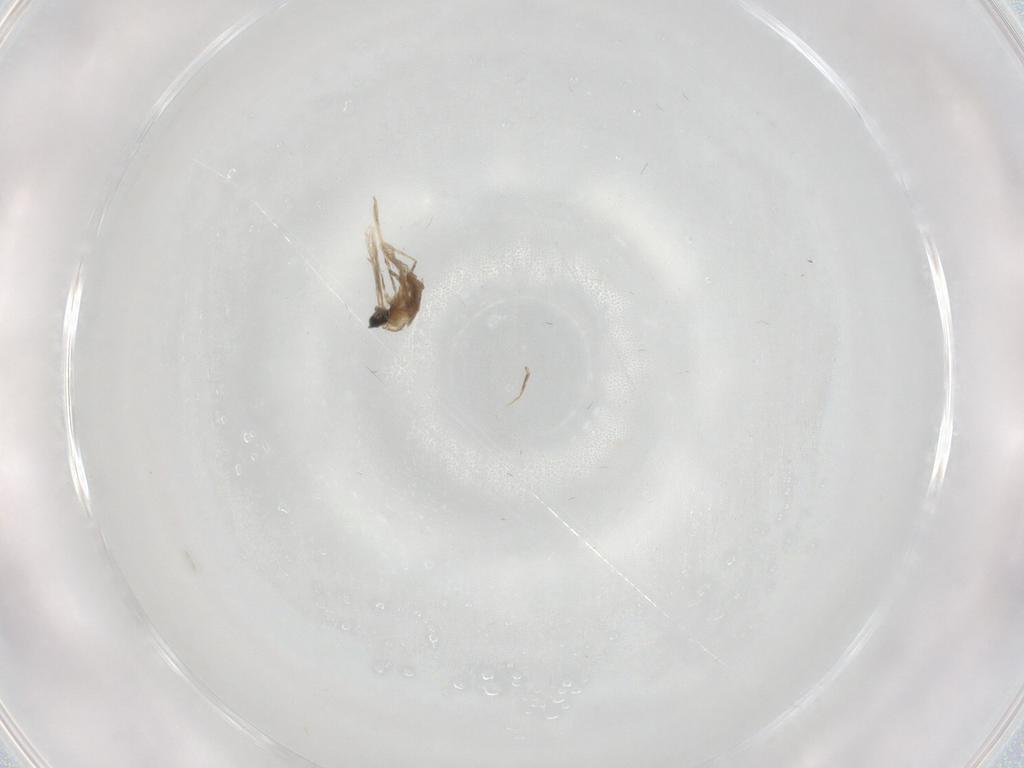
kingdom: Animalia
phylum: Arthropoda
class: Insecta
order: Diptera
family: Cecidomyiidae
